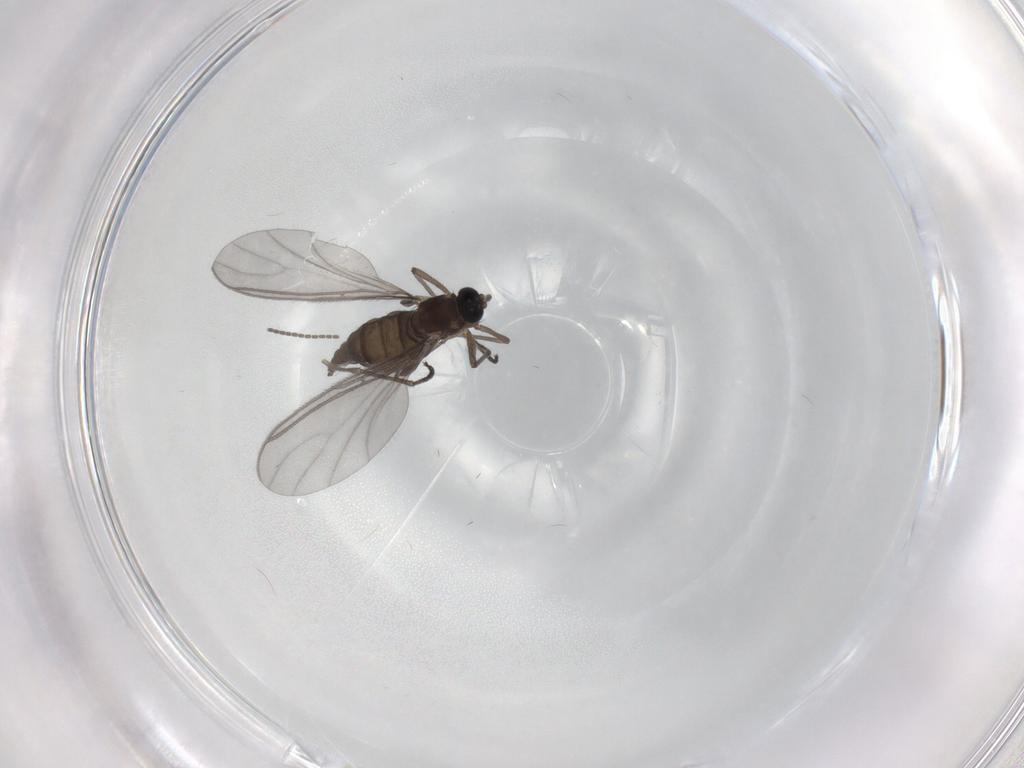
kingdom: Animalia
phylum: Arthropoda
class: Insecta
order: Diptera
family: Sciaridae
